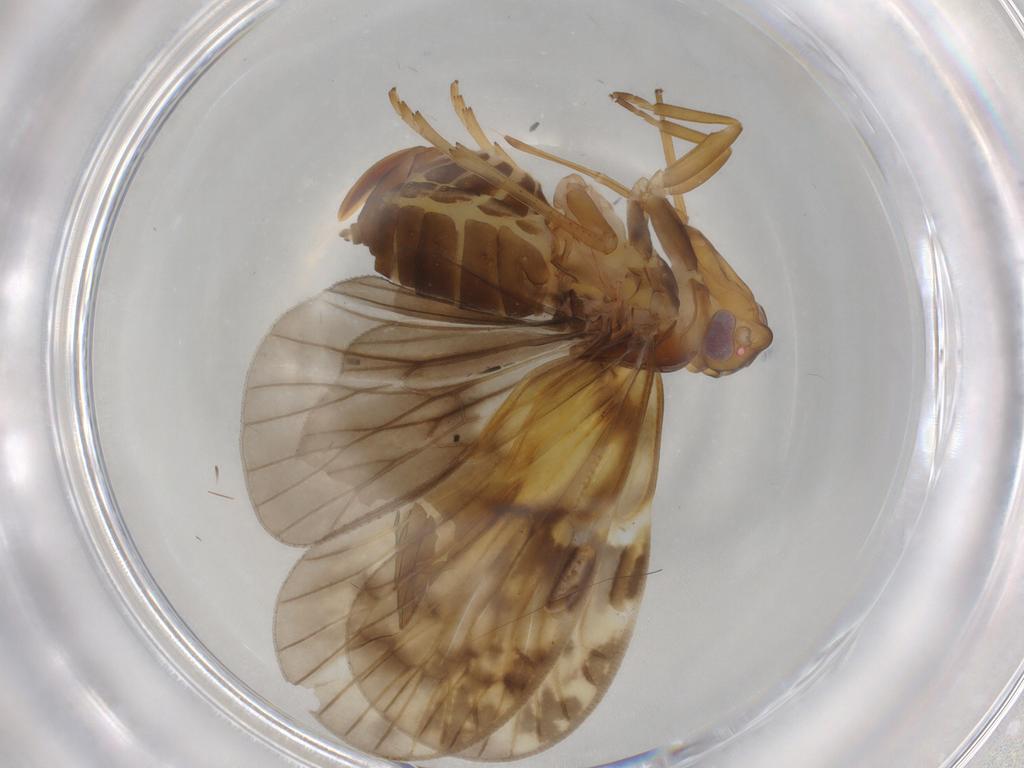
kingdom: Animalia
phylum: Arthropoda
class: Insecta
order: Hemiptera
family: Cixiidae
